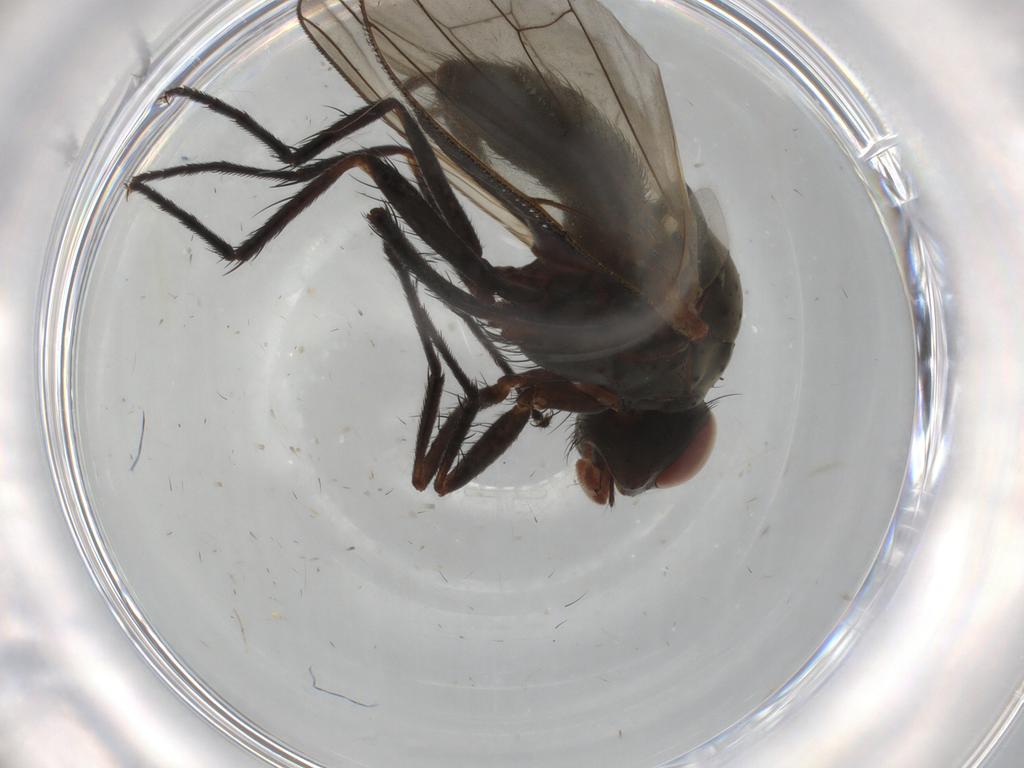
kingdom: Animalia
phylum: Arthropoda
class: Insecta
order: Diptera
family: Anthomyiidae
